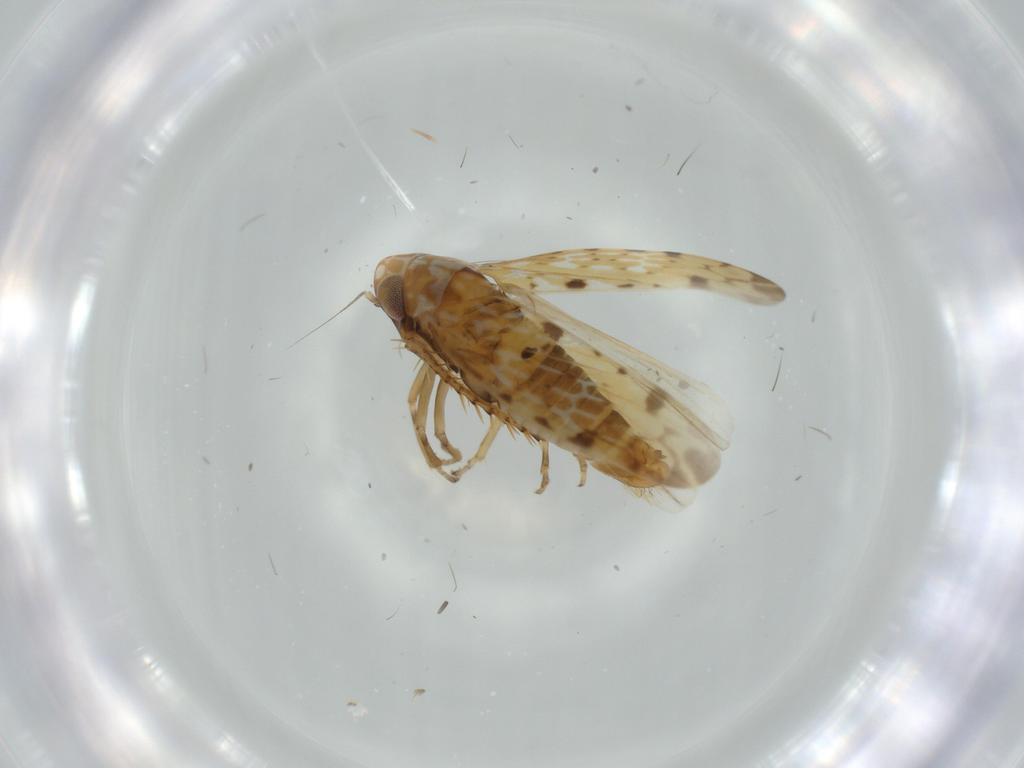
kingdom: Animalia
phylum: Arthropoda
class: Insecta
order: Hemiptera
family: Cicadellidae
